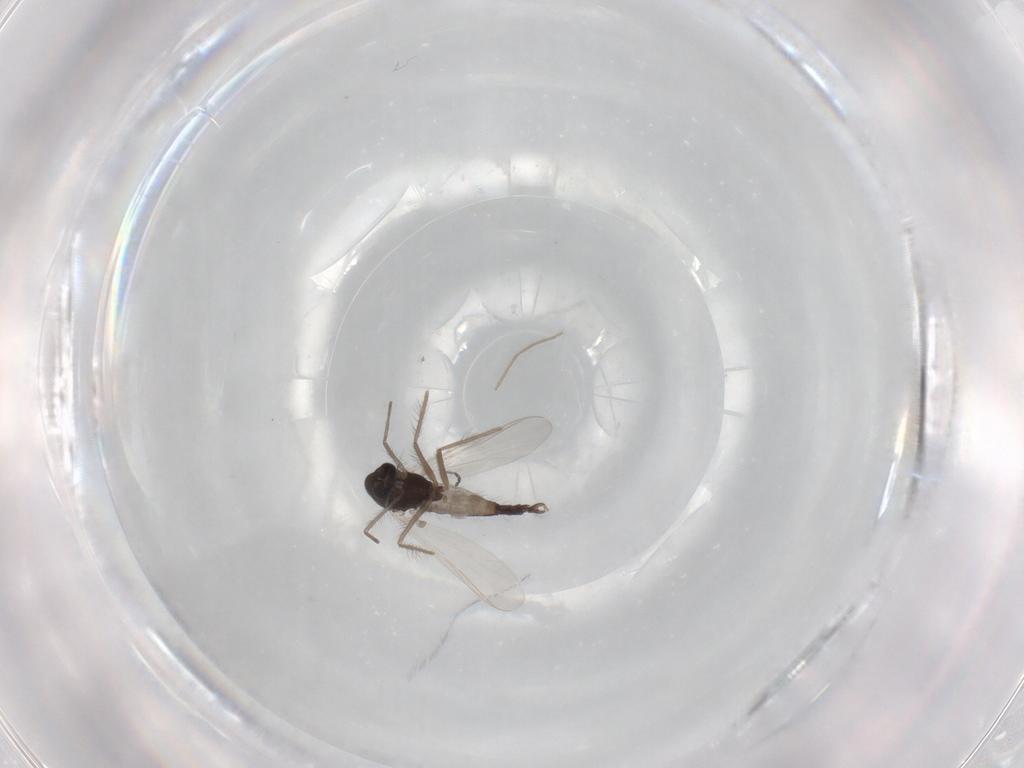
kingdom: Animalia
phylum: Arthropoda
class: Insecta
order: Diptera
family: Chironomidae
